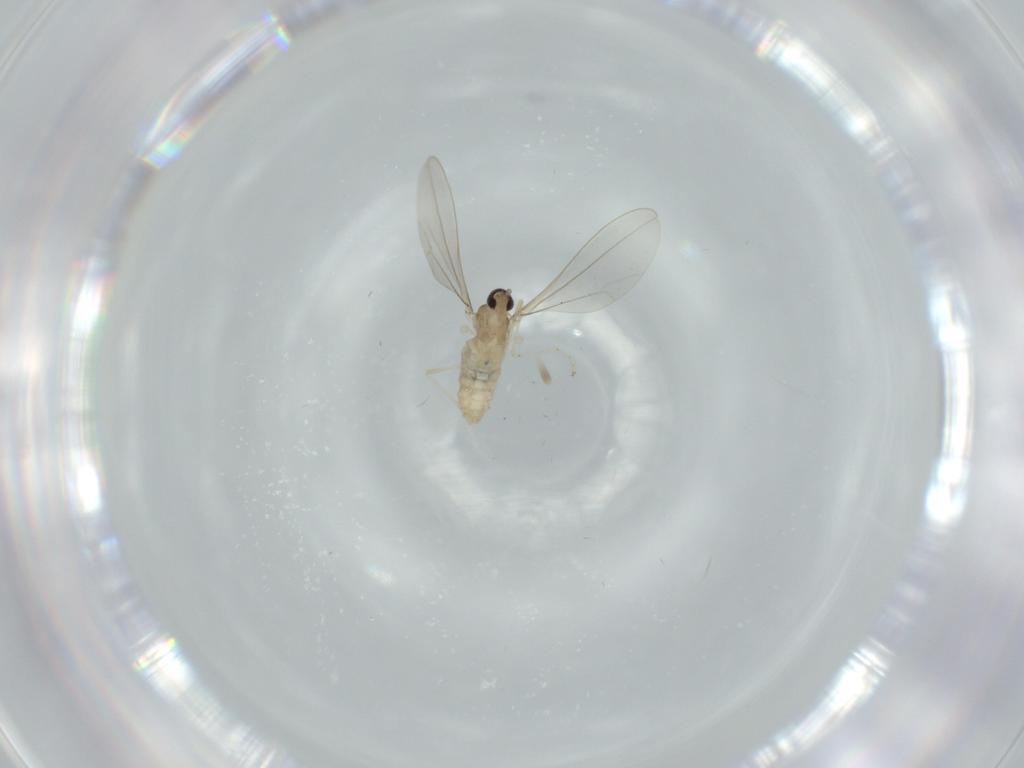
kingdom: Animalia
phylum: Arthropoda
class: Insecta
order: Diptera
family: Cecidomyiidae
